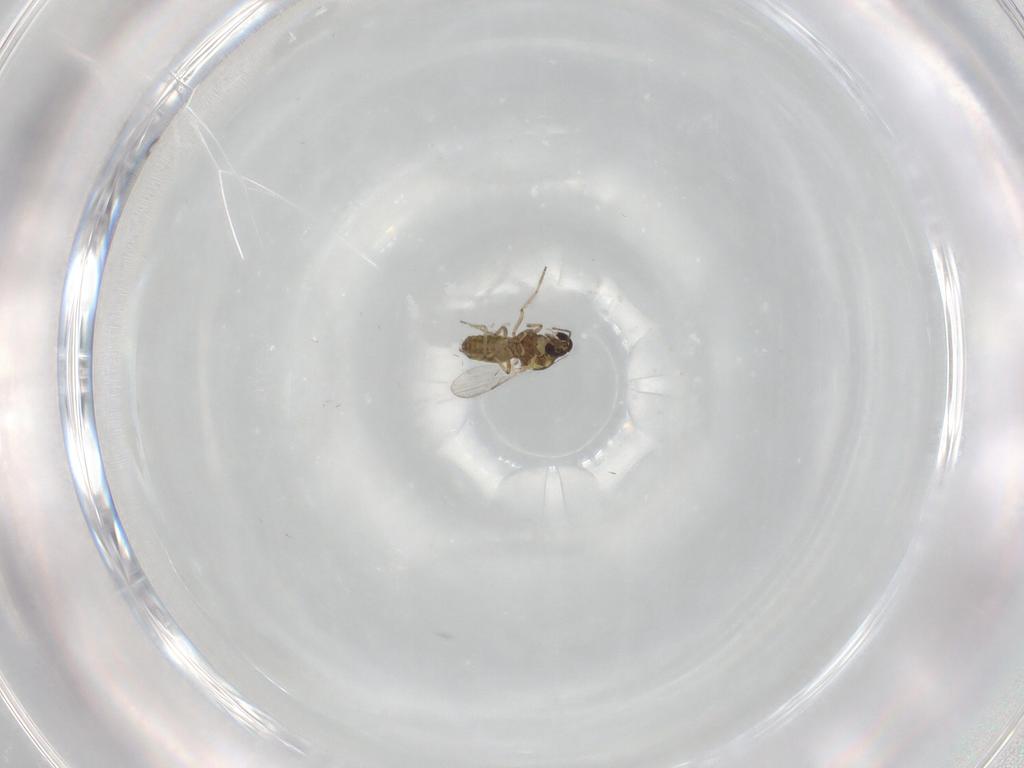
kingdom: Animalia
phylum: Arthropoda
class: Insecta
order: Diptera
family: Ceratopogonidae
